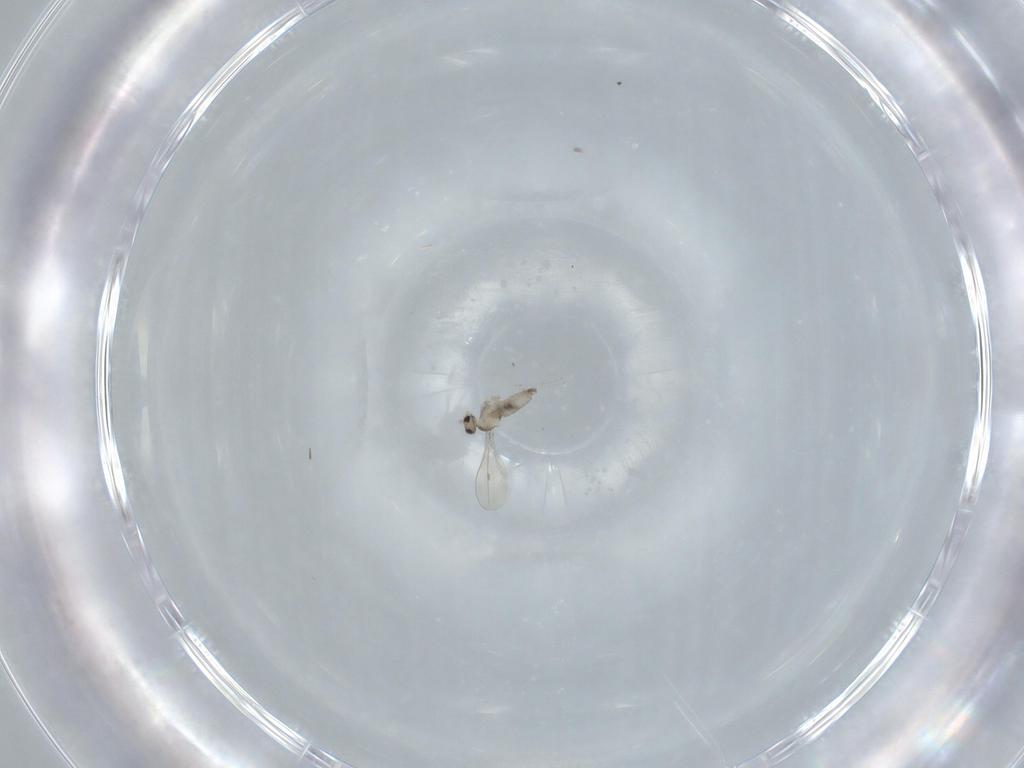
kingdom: Animalia
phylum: Arthropoda
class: Insecta
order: Diptera
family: Cecidomyiidae
